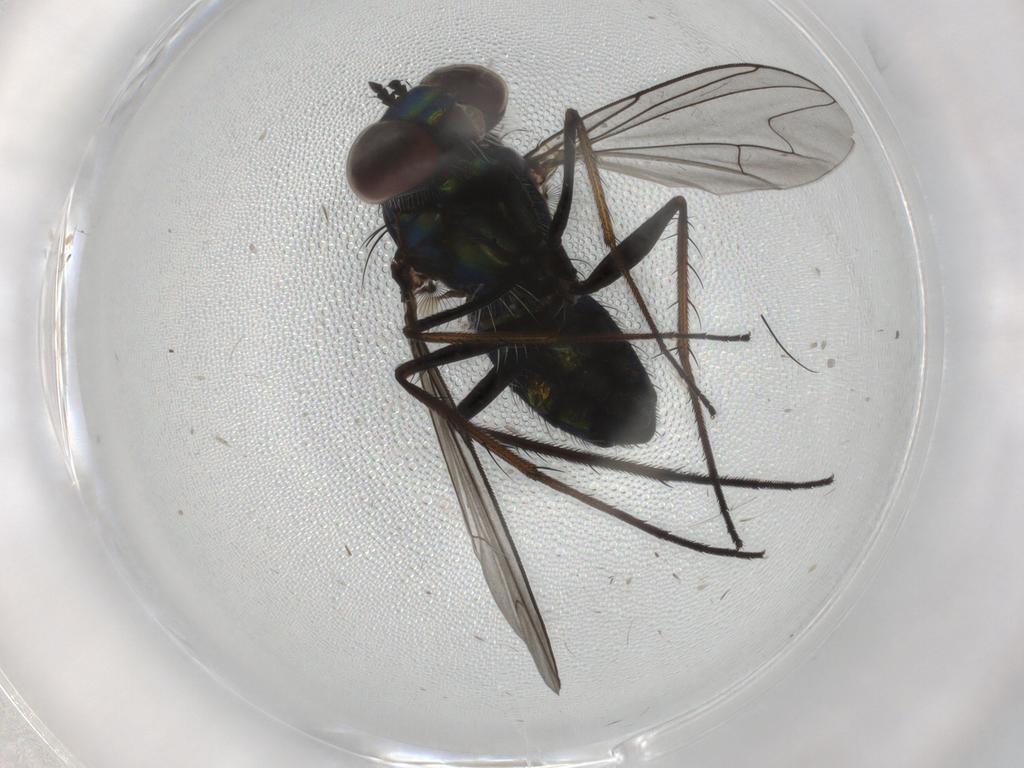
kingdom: Animalia
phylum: Arthropoda
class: Insecta
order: Diptera
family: Dolichopodidae
